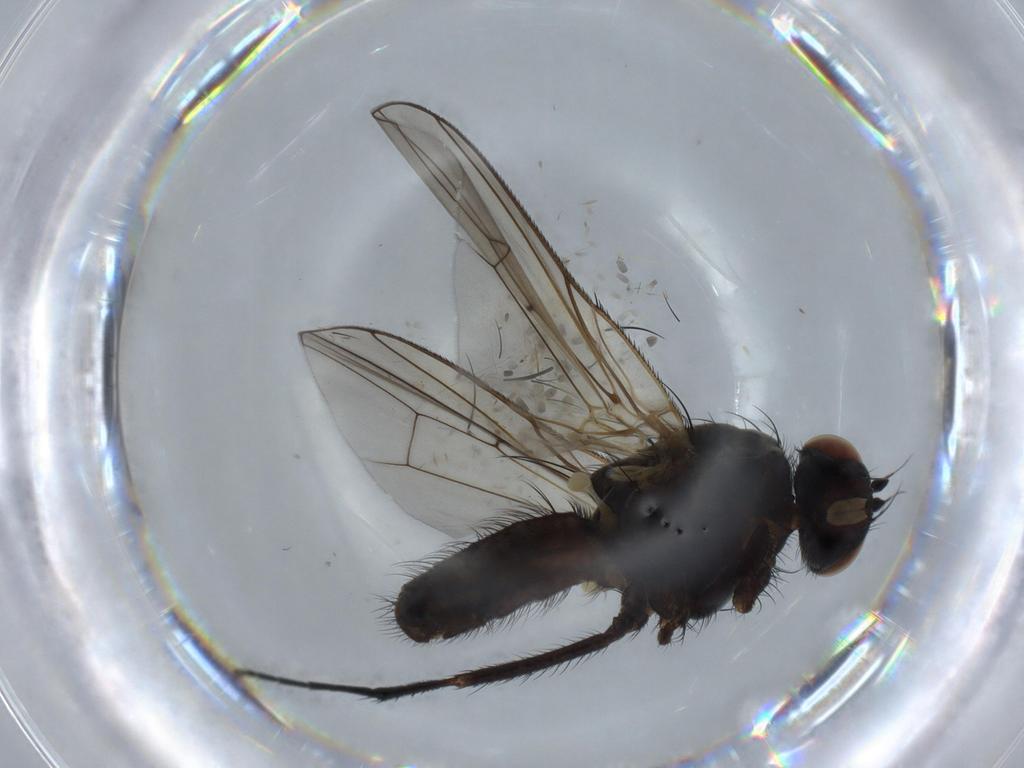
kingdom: Animalia
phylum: Arthropoda
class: Insecta
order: Diptera
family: Anthomyiidae
